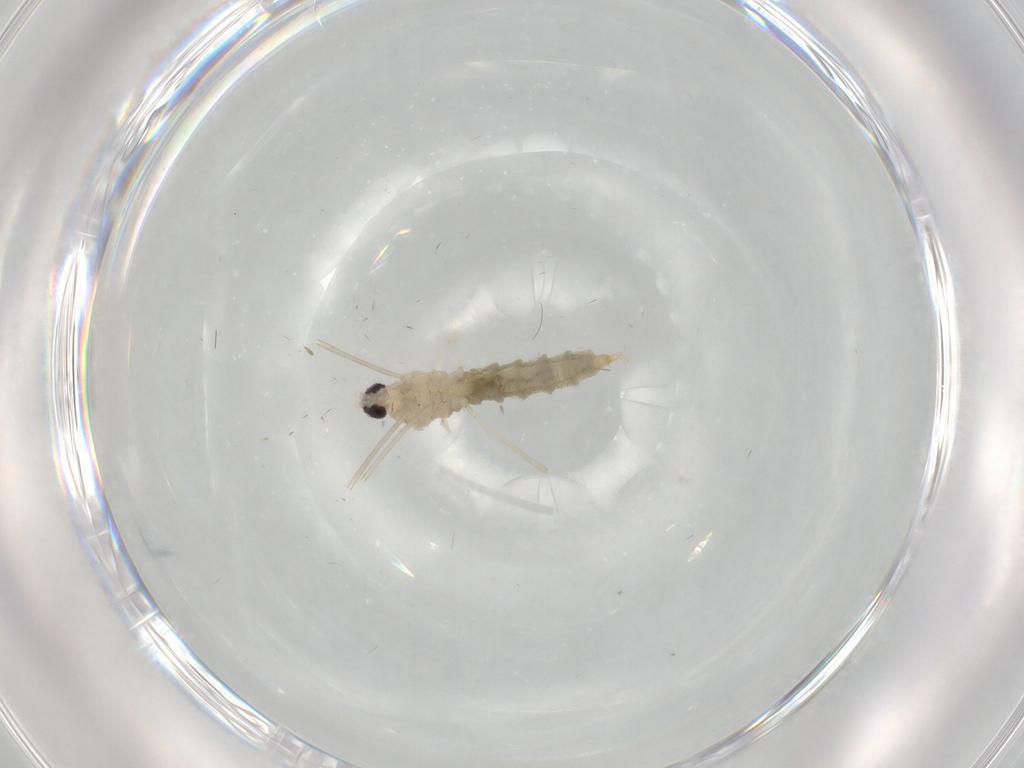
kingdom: Animalia
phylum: Arthropoda
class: Insecta
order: Diptera
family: Cecidomyiidae
